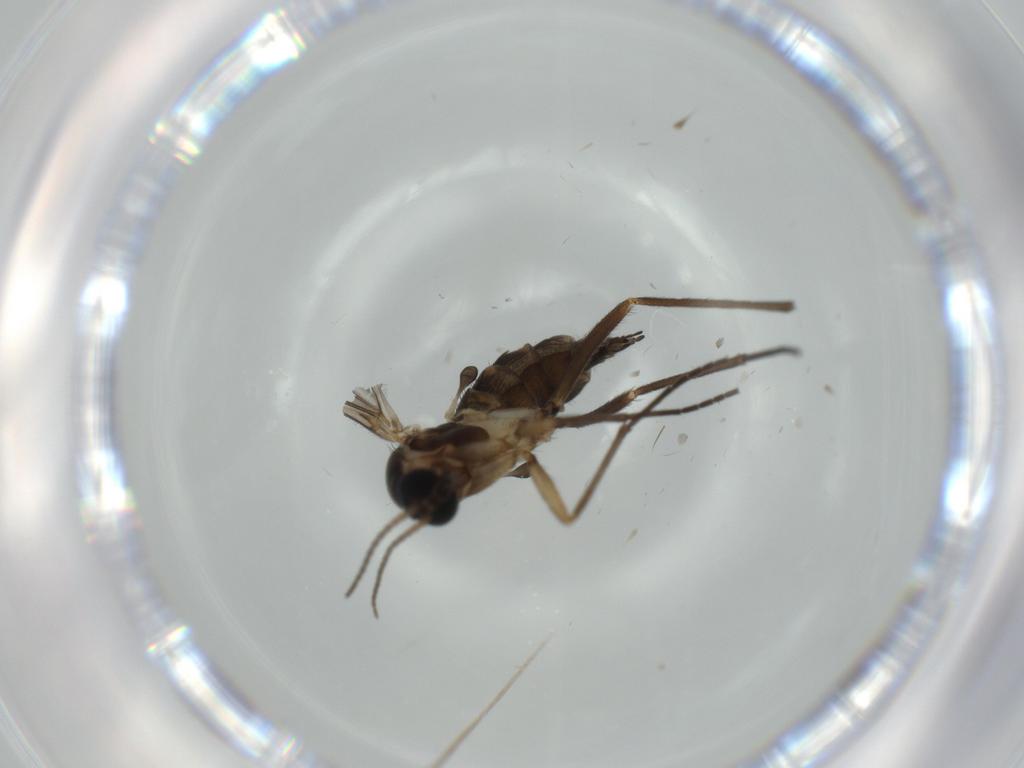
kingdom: Animalia
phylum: Arthropoda
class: Insecta
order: Diptera
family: Sciaridae
